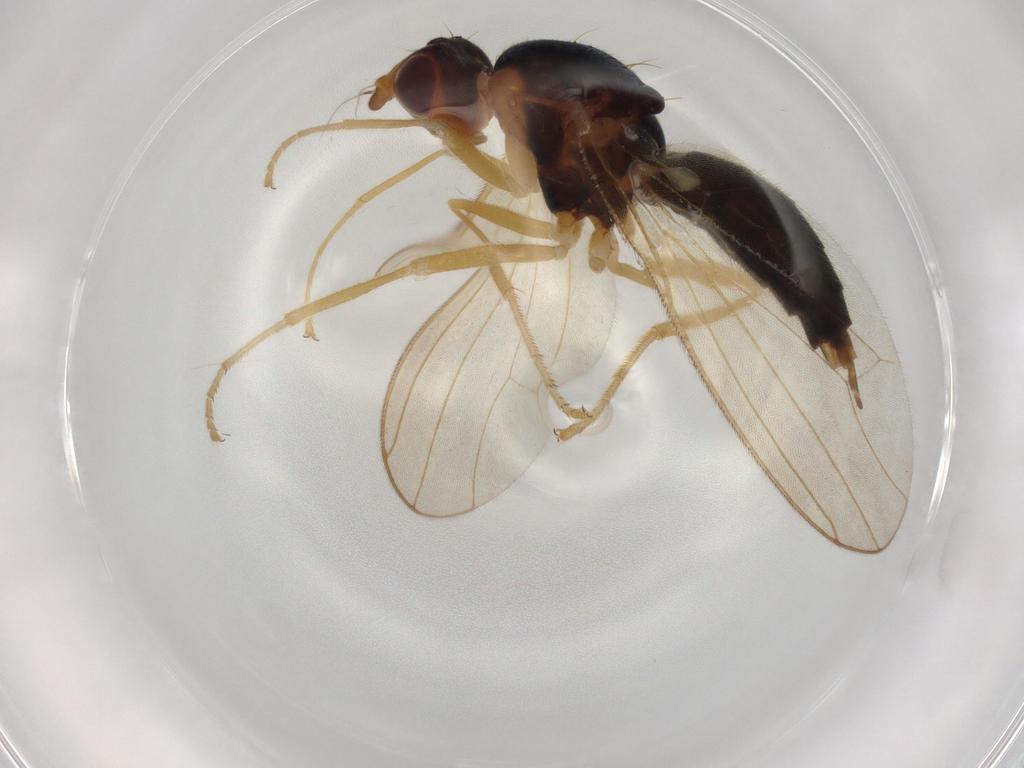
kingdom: Animalia
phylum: Arthropoda
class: Insecta
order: Diptera
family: Psilidae
